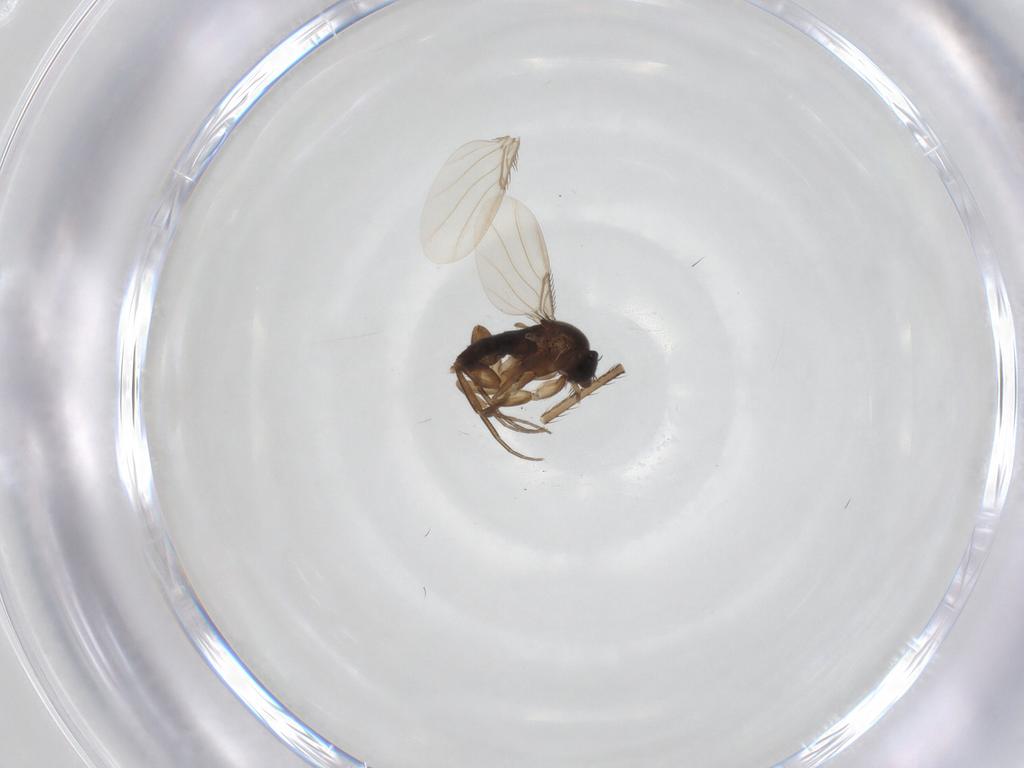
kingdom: Animalia
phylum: Arthropoda
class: Insecta
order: Diptera
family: Phoridae
